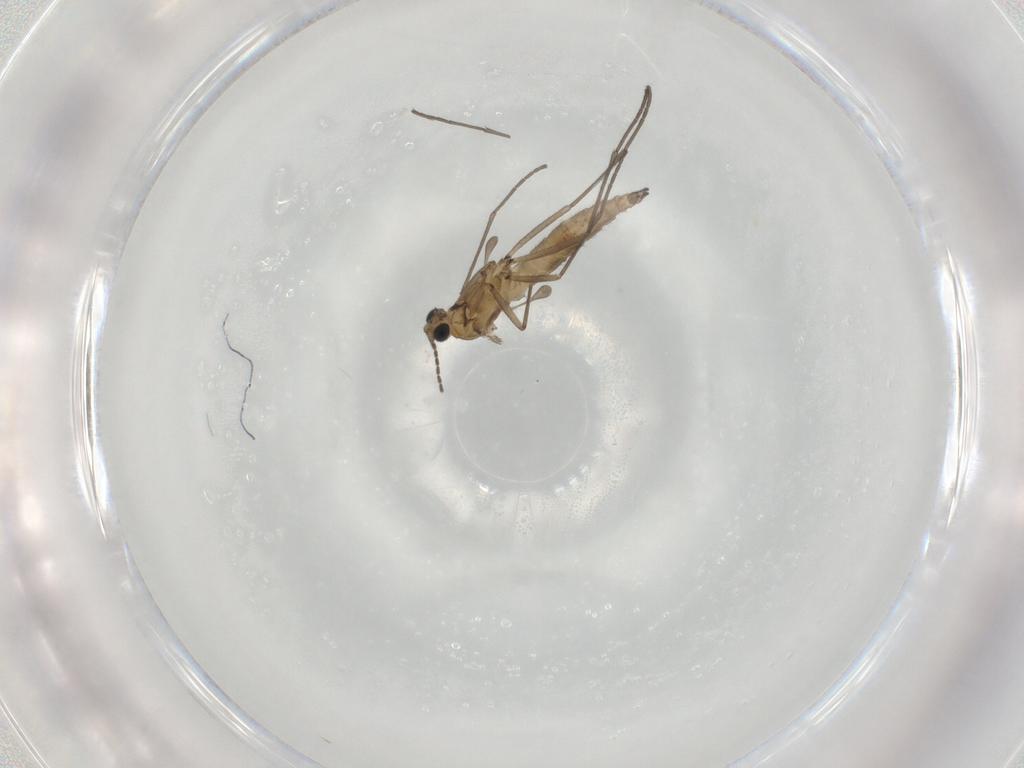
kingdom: Animalia
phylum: Arthropoda
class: Insecta
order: Diptera
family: Sciaridae
